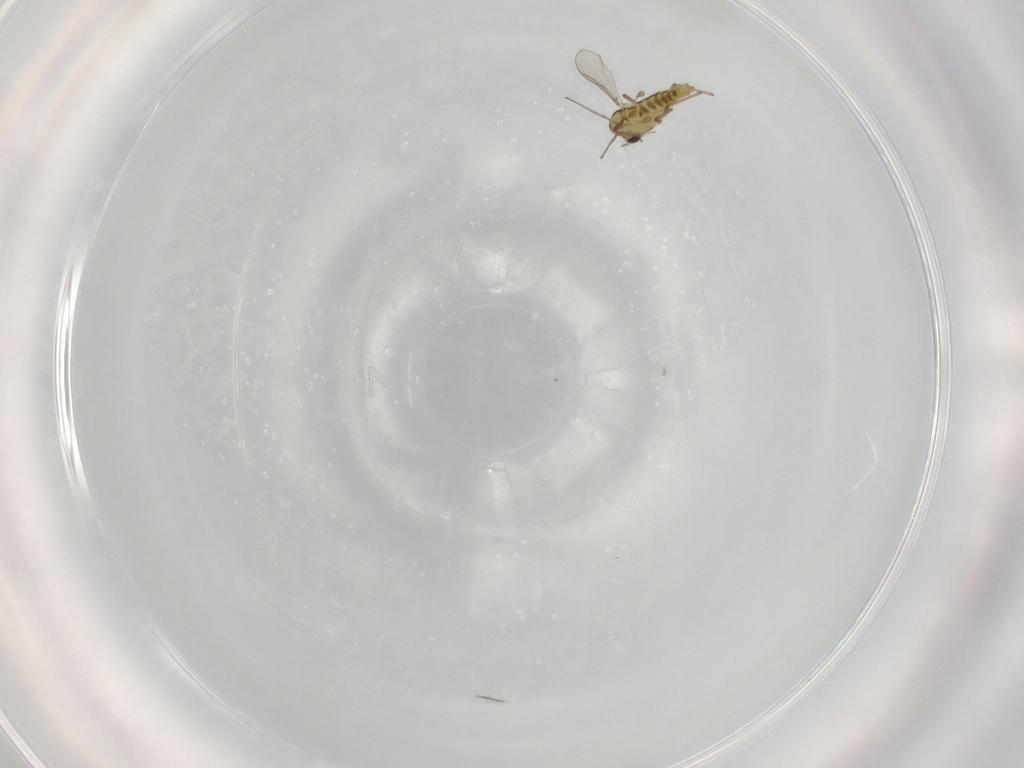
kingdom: Animalia
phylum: Arthropoda
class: Insecta
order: Diptera
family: Chironomidae
